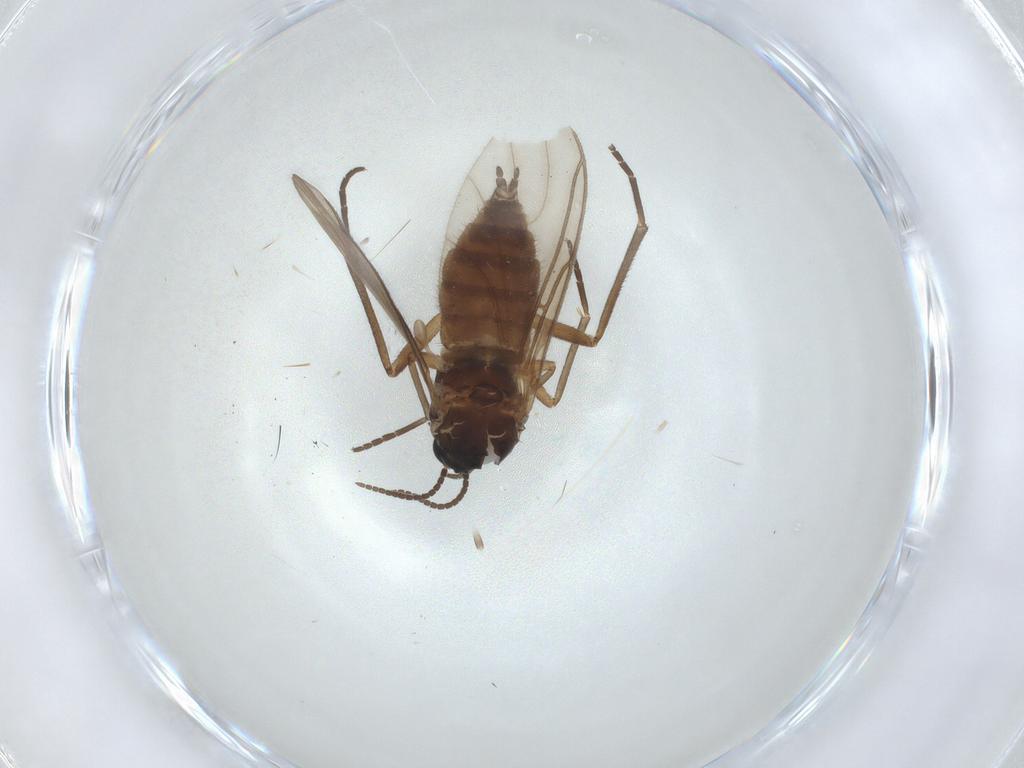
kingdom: Animalia
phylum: Arthropoda
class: Insecta
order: Diptera
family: Sciaridae
